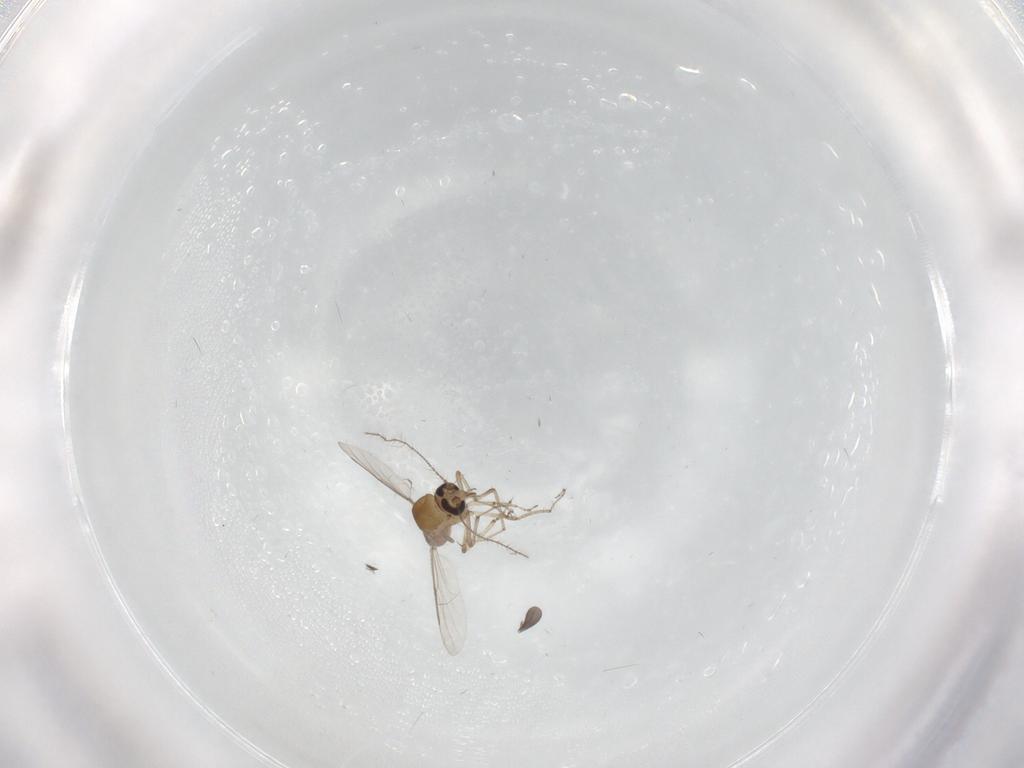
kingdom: Animalia
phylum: Arthropoda
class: Insecta
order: Diptera
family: Sciaridae
